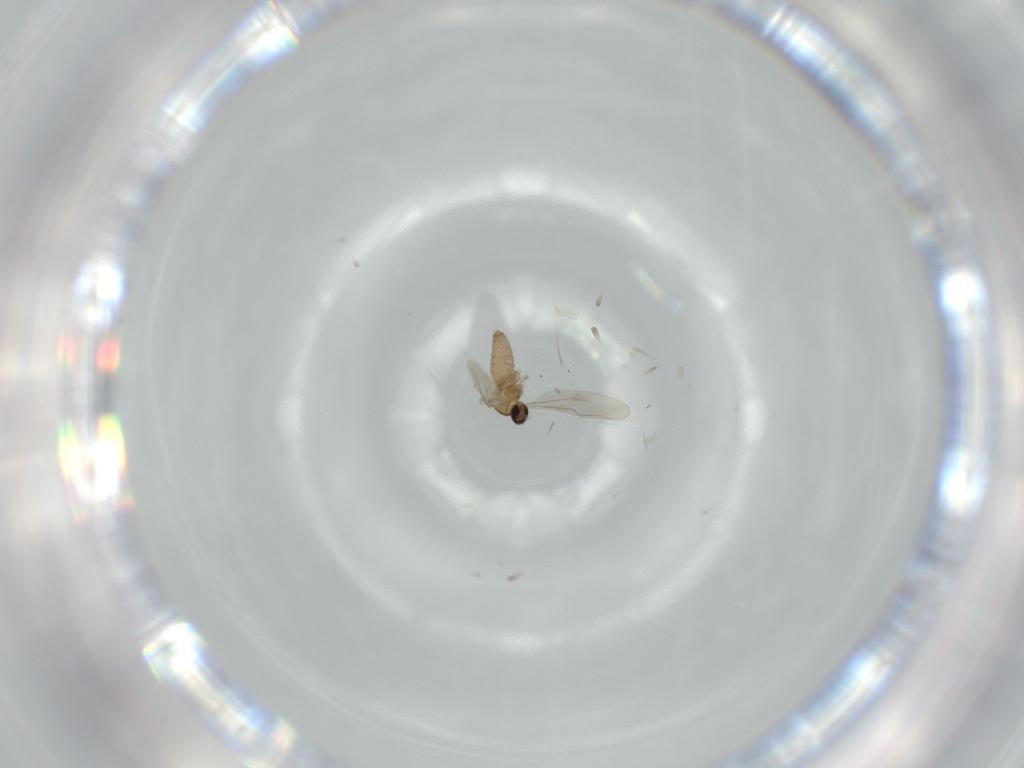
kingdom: Animalia
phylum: Arthropoda
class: Insecta
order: Diptera
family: Cecidomyiidae
